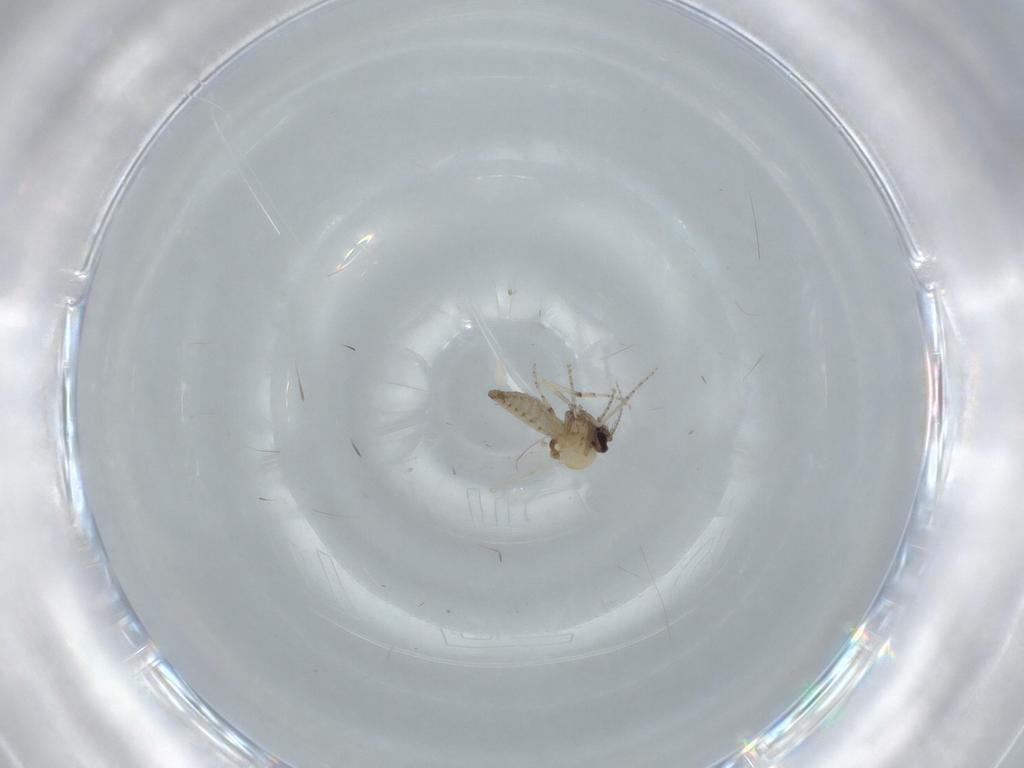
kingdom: Animalia
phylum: Arthropoda
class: Insecta
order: Diptera
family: Ceratopogonidae
